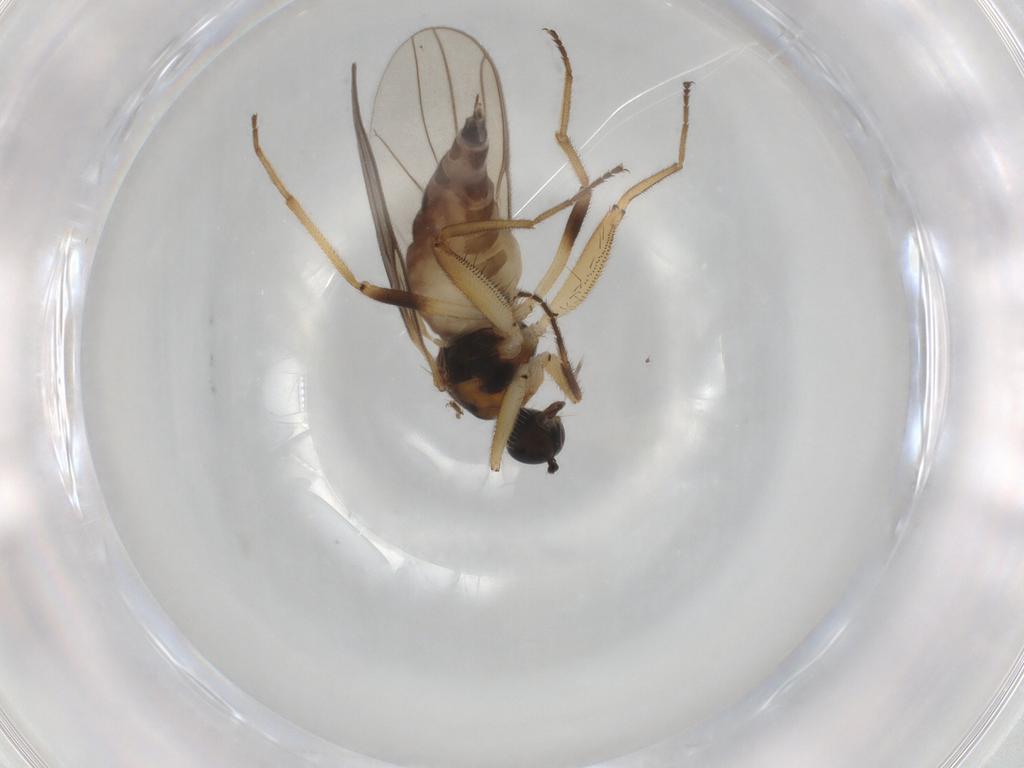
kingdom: Animalia
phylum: Arthropoda
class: Insecta
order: Diptera
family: Hybotidae
